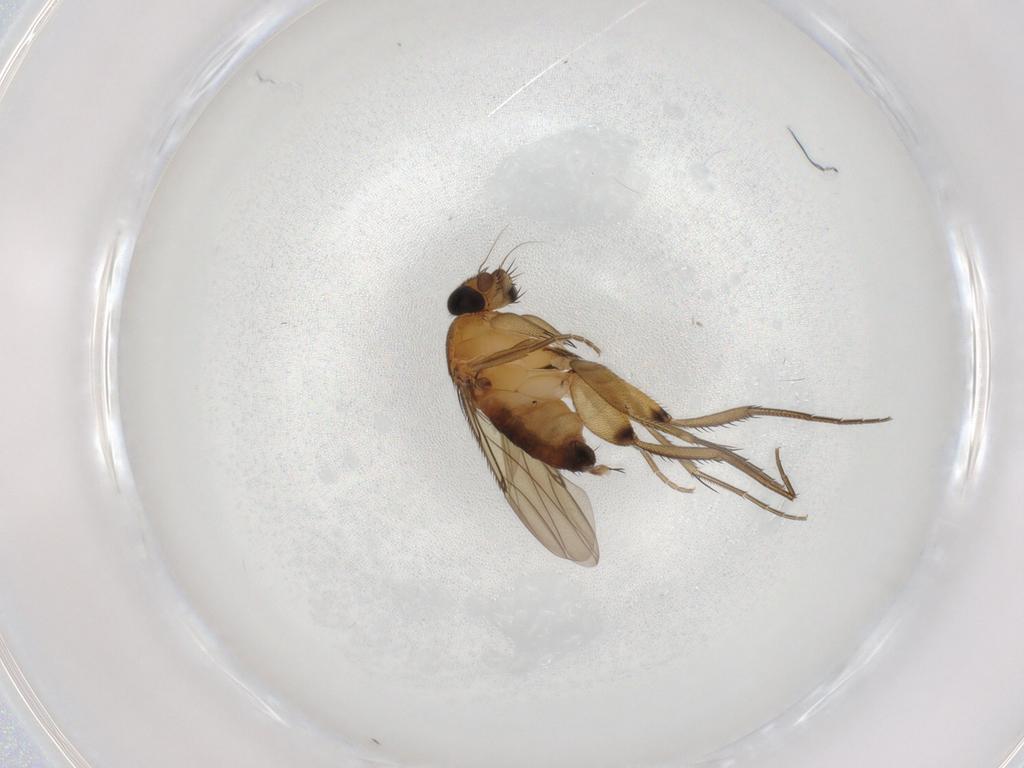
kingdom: Animalia
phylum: Arthropoda
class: Insecta
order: Diptera
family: Phoridae
